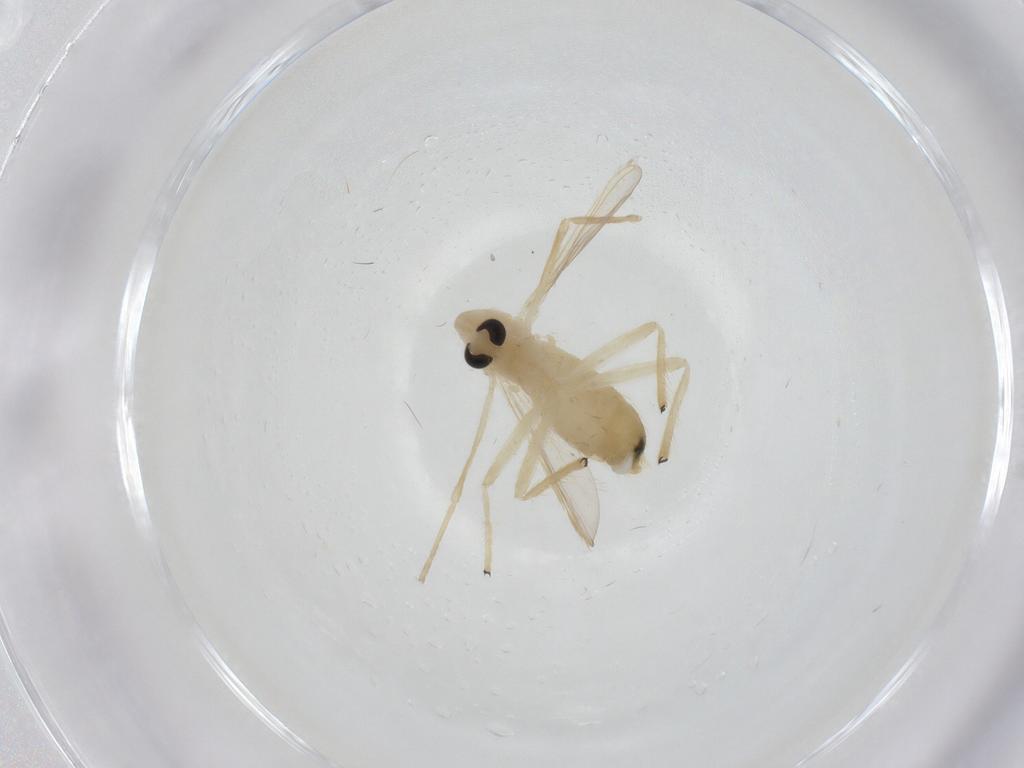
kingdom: Animalia
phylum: Arthropoda
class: Insecta
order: Diptera
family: Chironomidae
